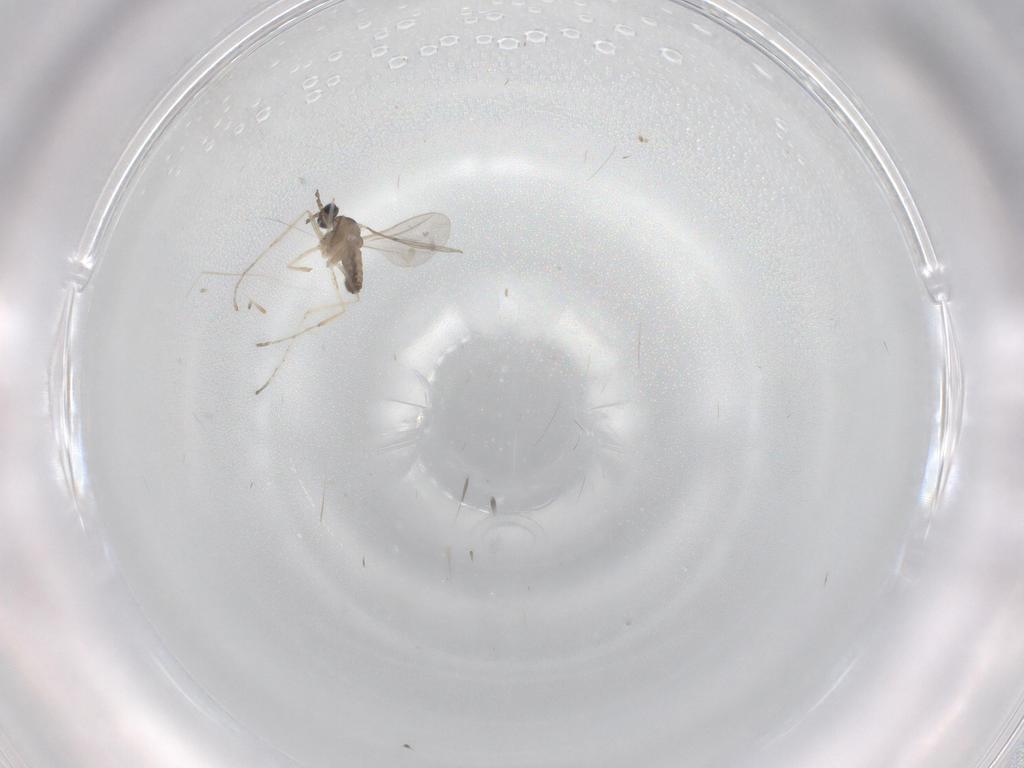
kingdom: Animalia
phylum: Arthropoda
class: Insecta
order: Diptera
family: Cecidomyiidae
